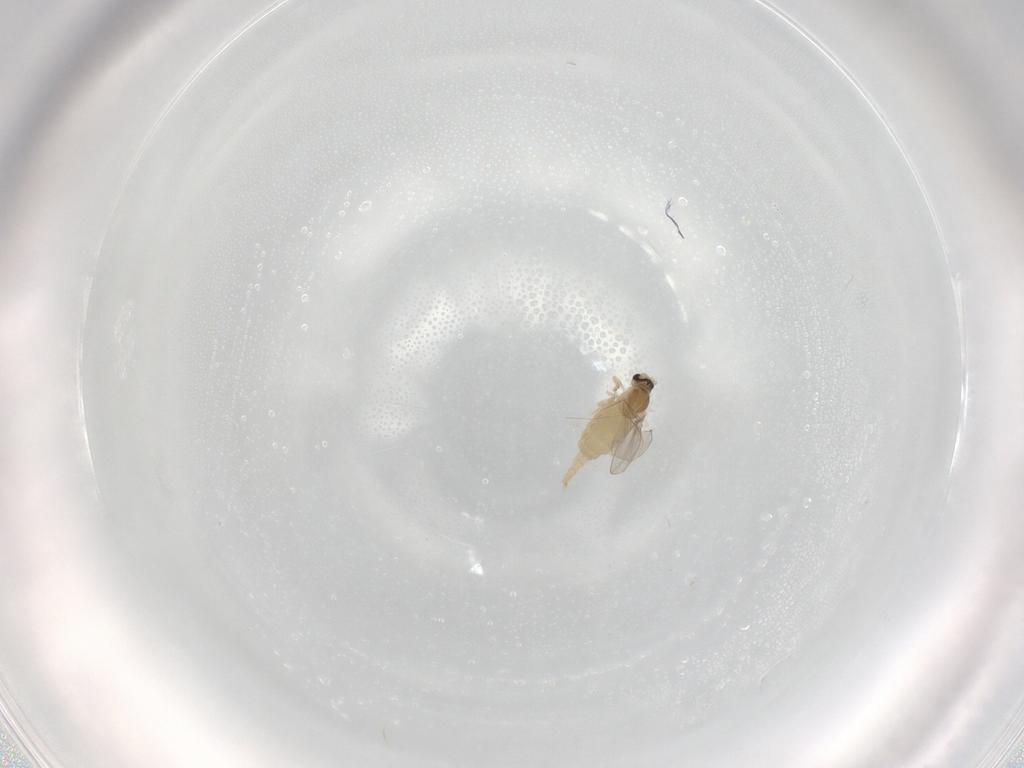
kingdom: Animalia
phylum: Arthropoda
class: Insecta
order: Diptera
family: Cecidomyiidae
